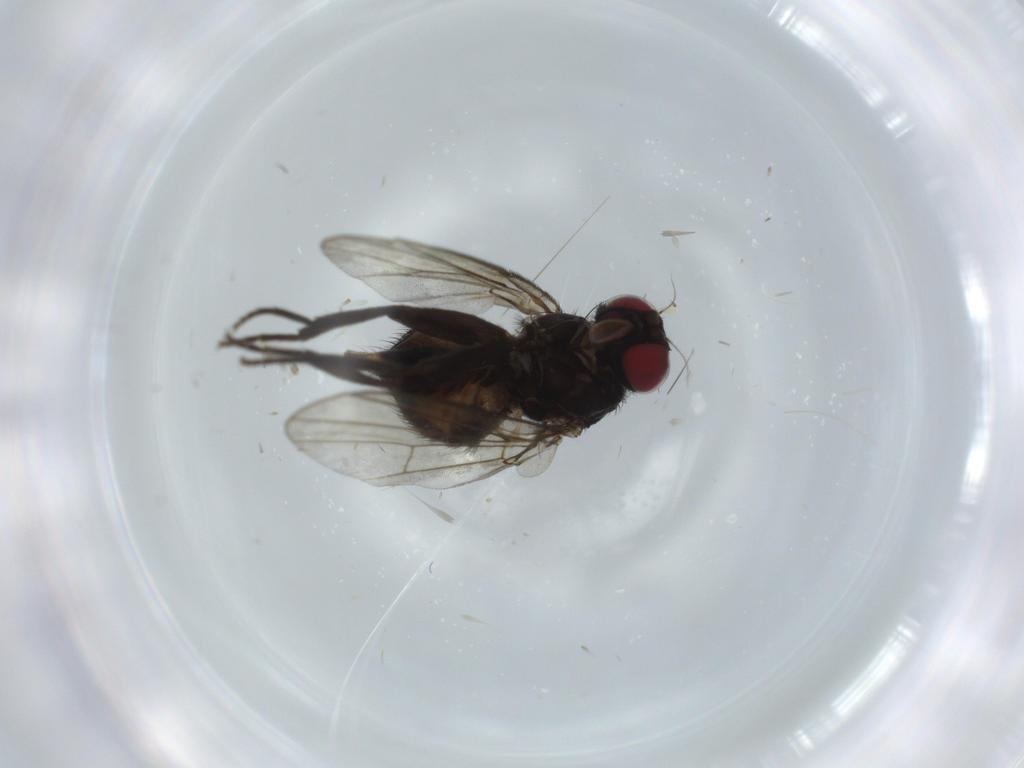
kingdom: Animalia
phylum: Arthropoda
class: Insecta
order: Diptera
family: Agromyzidae
